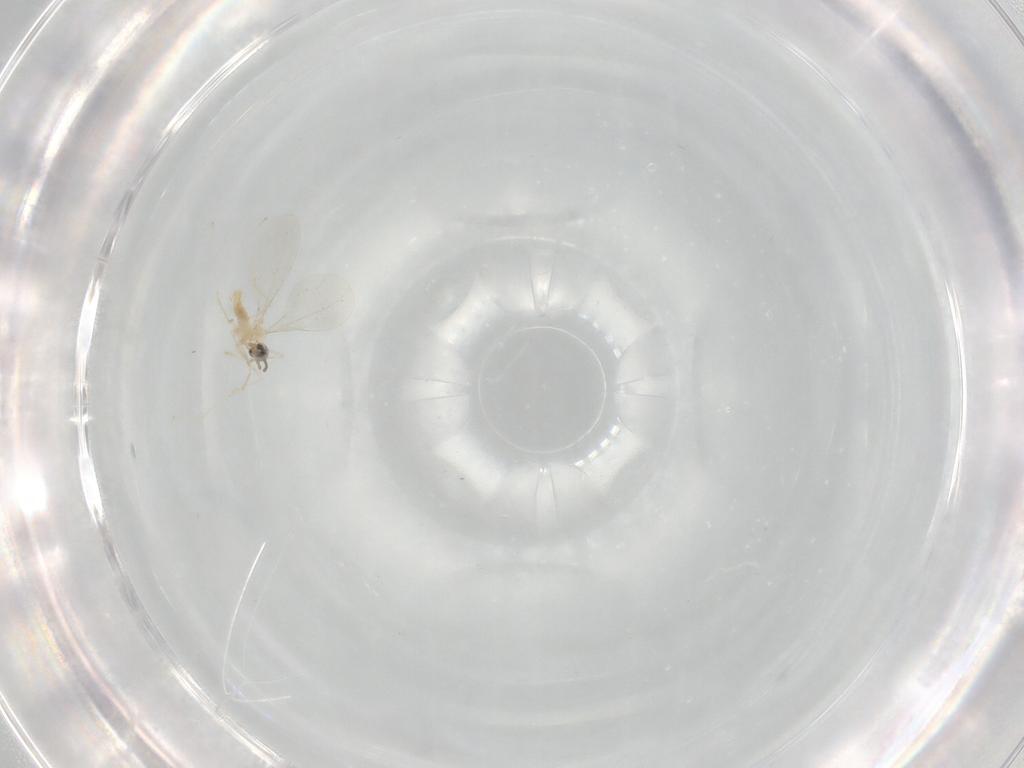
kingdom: Animalia
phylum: Arthropoda
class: Insecta
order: Diptera
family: Cecidomyiidae
